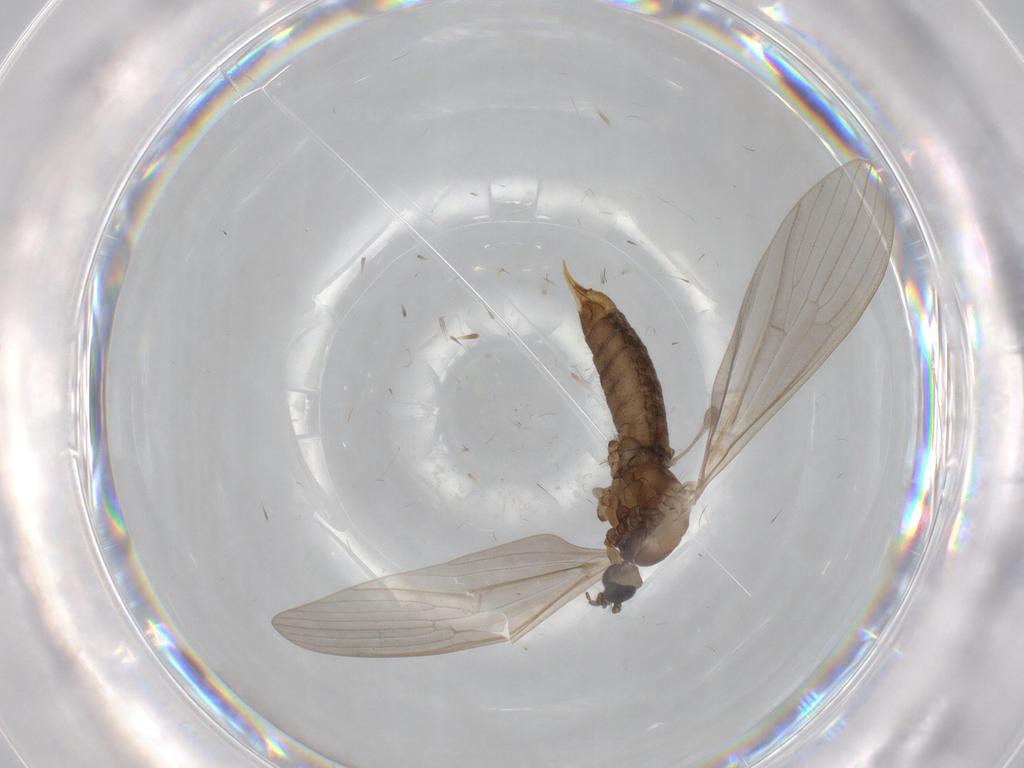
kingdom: Animalia
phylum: Arthropoda
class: Insecta
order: Diptera
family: Limoniidae
